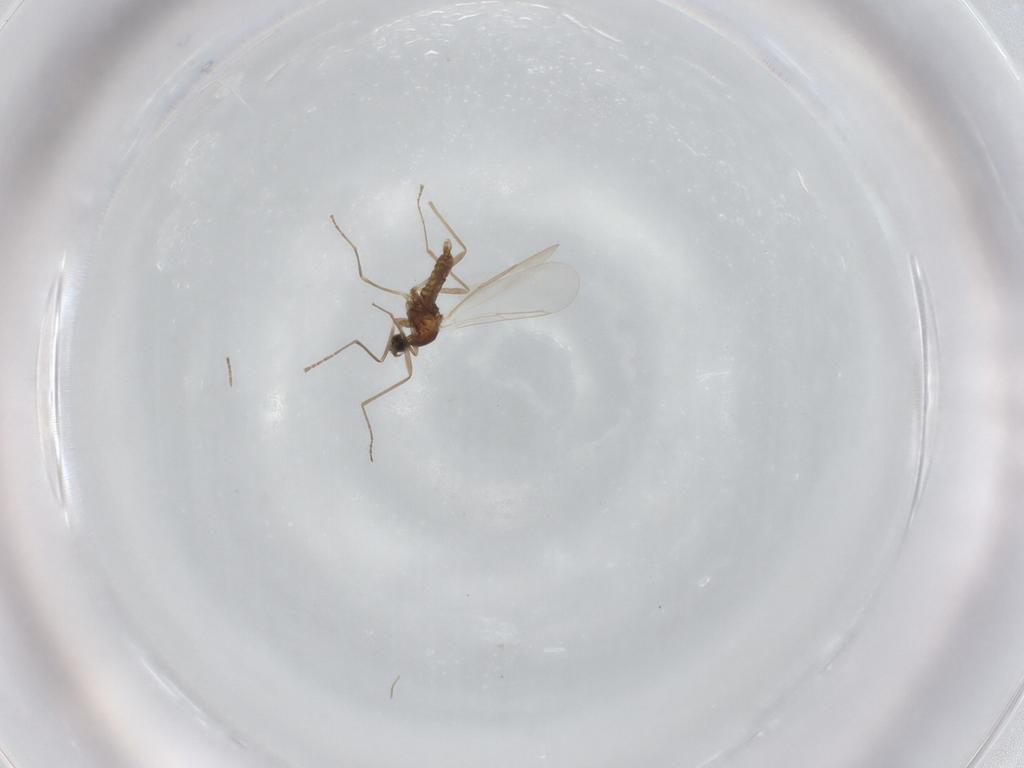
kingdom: Animalia
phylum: Arthropoda
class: Insecta
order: Diptera
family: Cecidomyiidae
